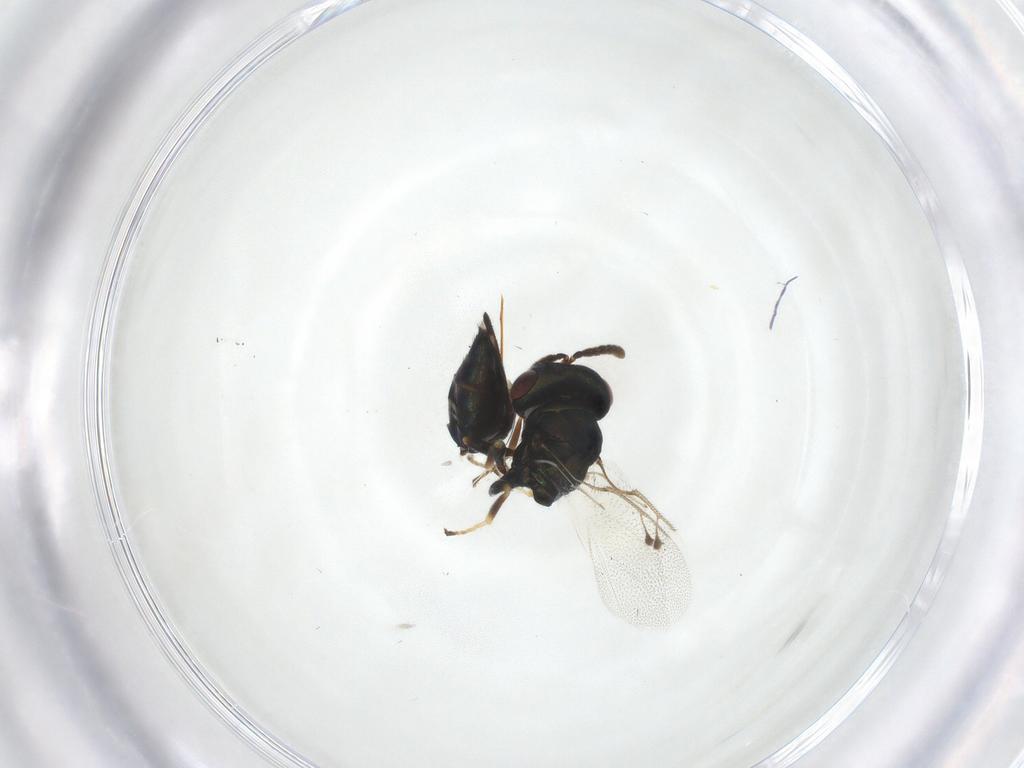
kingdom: Animalia
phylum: Arthropoda
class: Insecta
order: Hymenoptera
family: Pteromalidae
